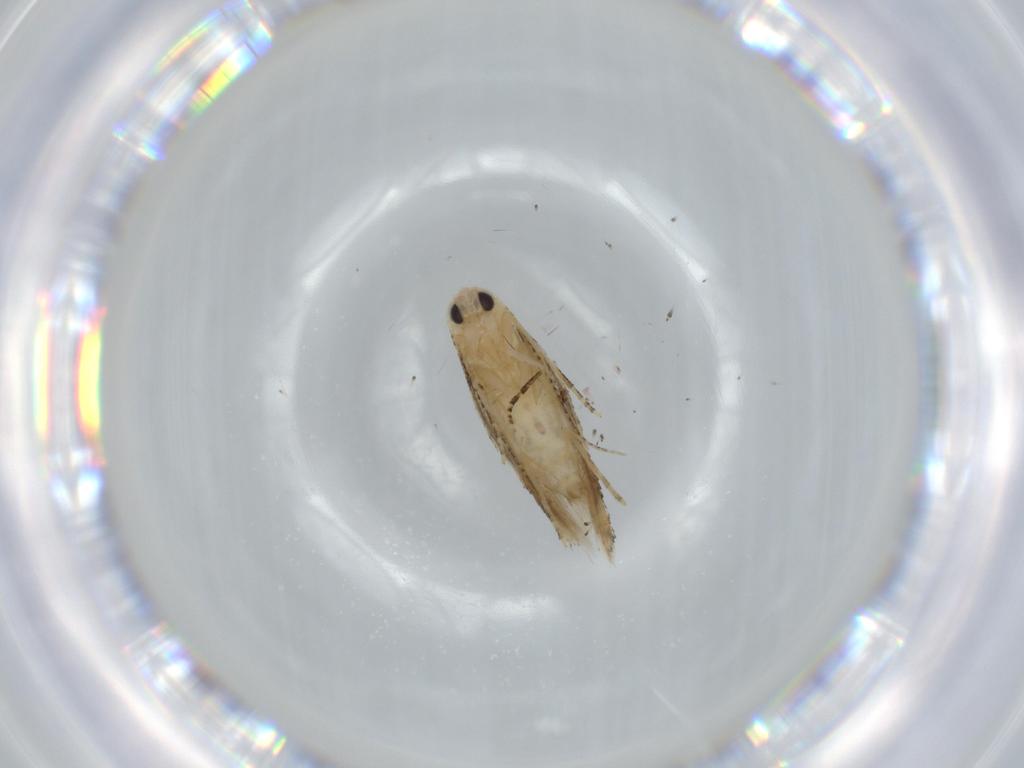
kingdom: Animalia
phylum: Arthropoda
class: Insecta
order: Lepidoptera
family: Bucculatricidae
